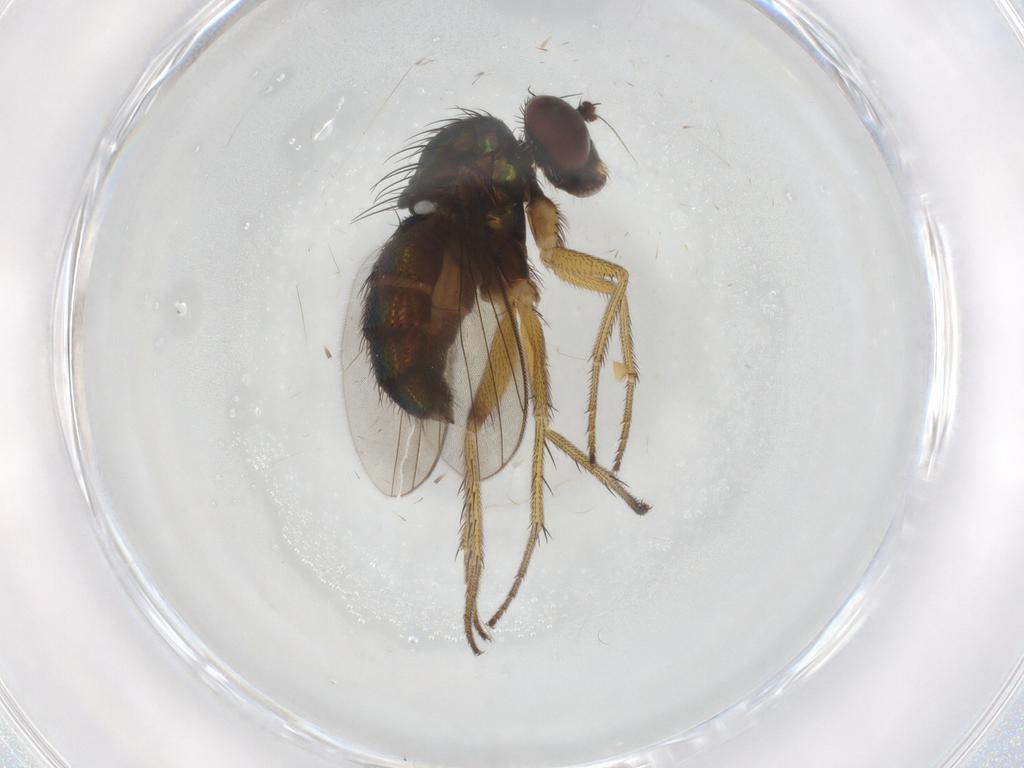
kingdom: Animalia
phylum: Arthropoda
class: Insecta
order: Diptera
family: Dolichopodidae
